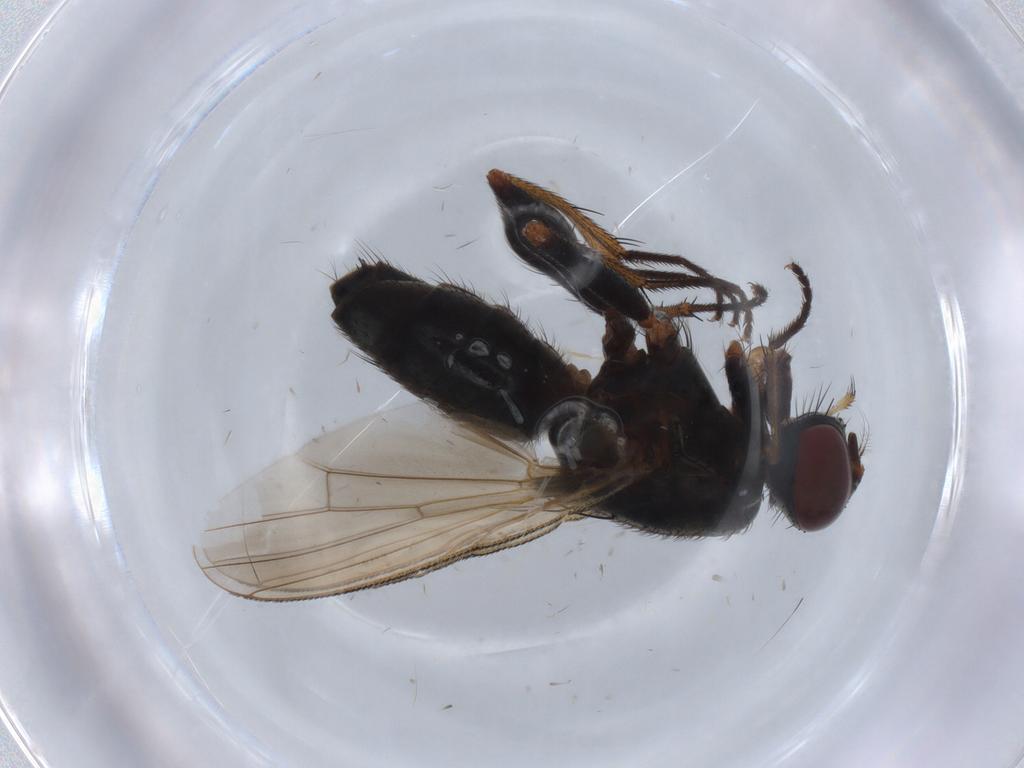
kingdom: Animalia
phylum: Arthropoda
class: Insecta
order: Diptera
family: Muscidae
